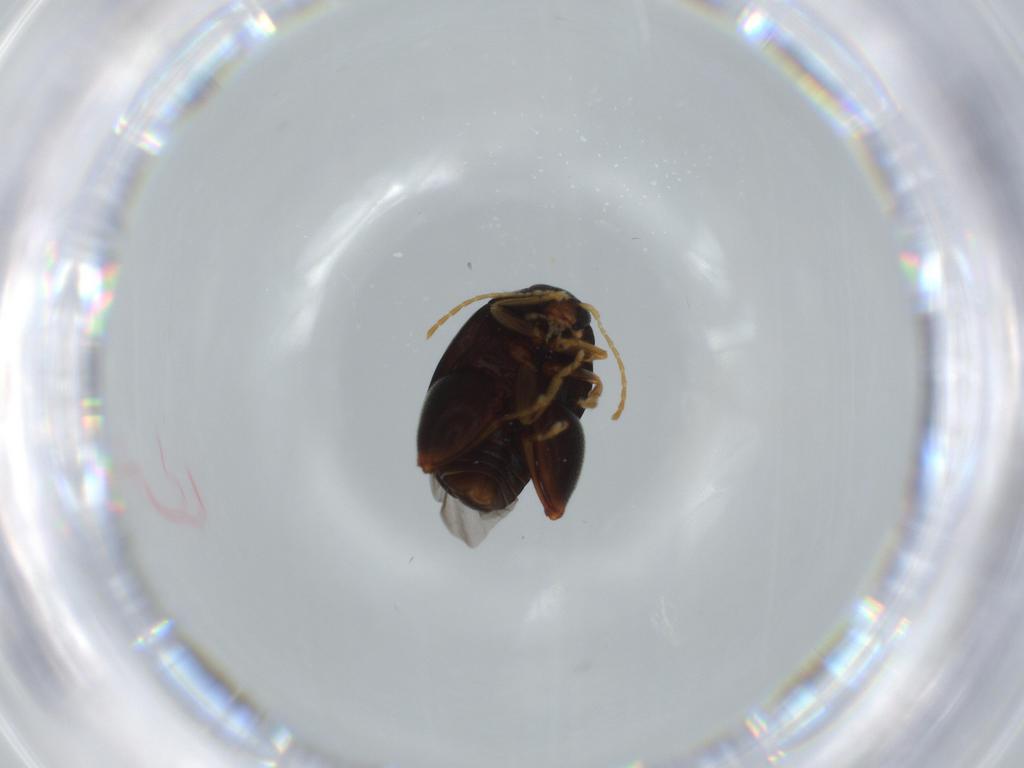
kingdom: Animalia
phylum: Arthropoda
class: Insecta
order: Coleoptera
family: Chrysomelidae
